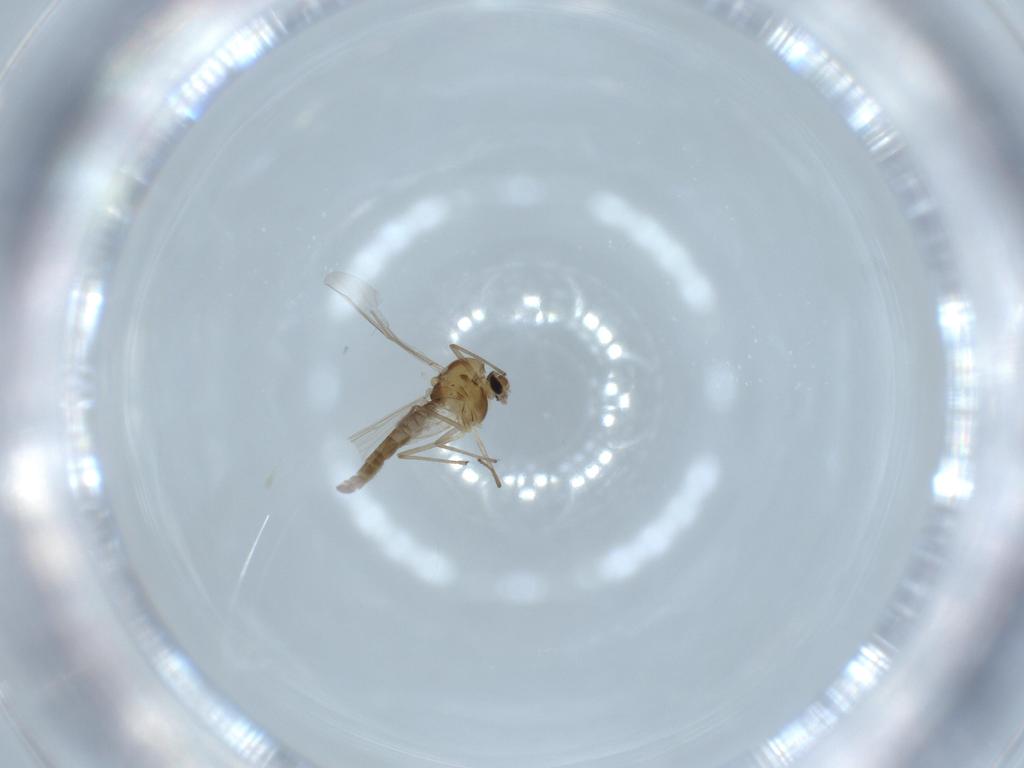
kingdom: Animalia
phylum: Arthropoda
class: Insecta
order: Diptera
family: Chironomidae
